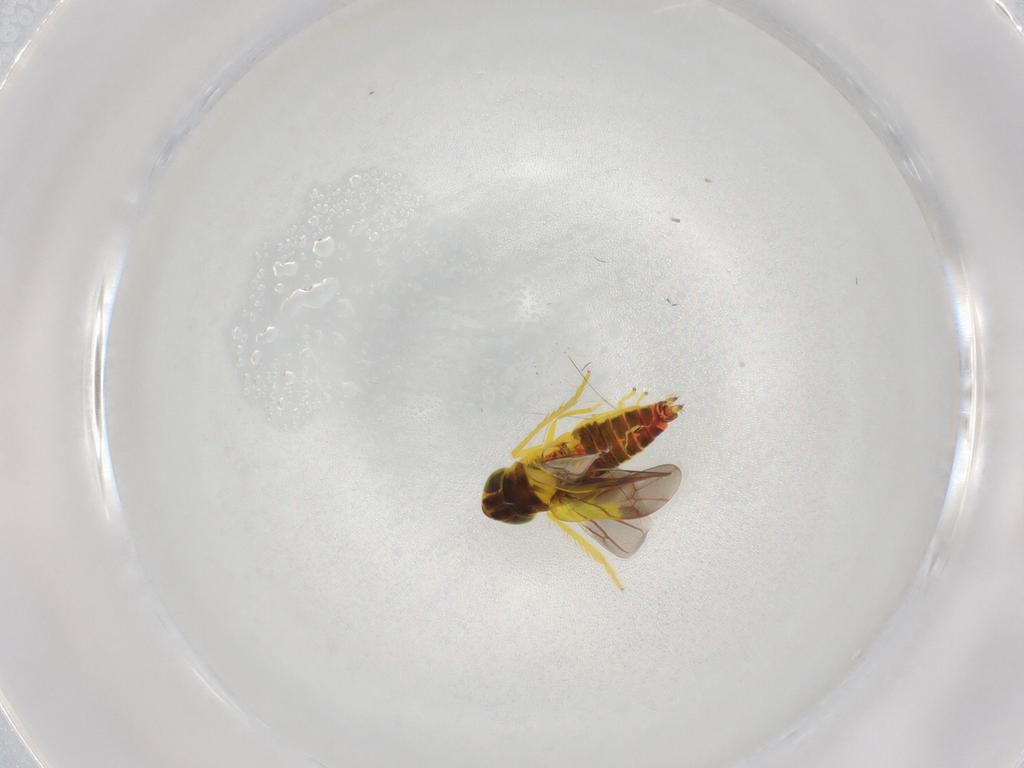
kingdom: Animalia
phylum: Arthropoda
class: Insecta
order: Hemiptera
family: Cicadellidae
